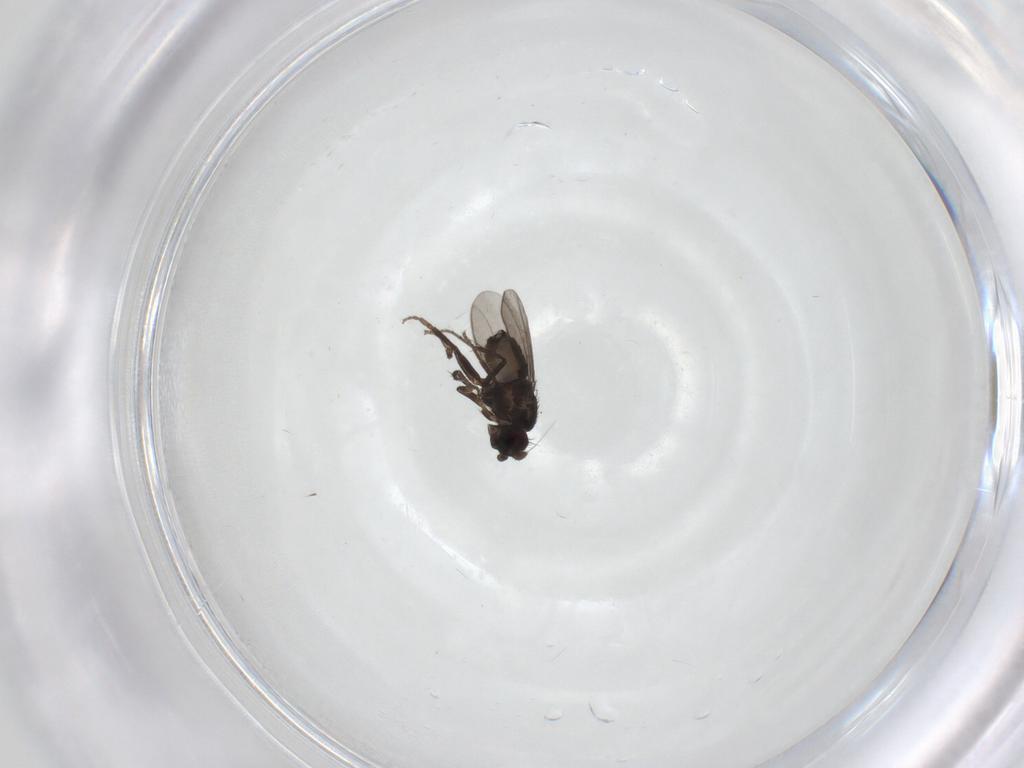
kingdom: Animalia
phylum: Arthropoda
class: Insecta
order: Diptera
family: Sphaeroceridae
